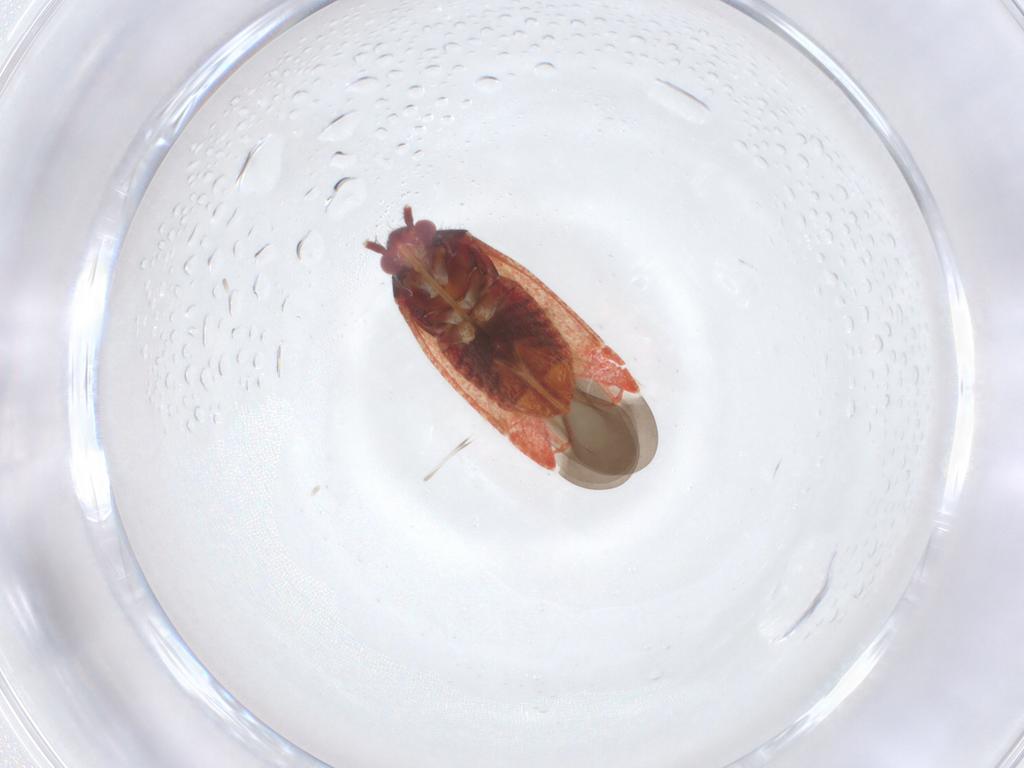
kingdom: Animalia
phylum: Arthropoda
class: Insecta
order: Hemiptera
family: Miridae
